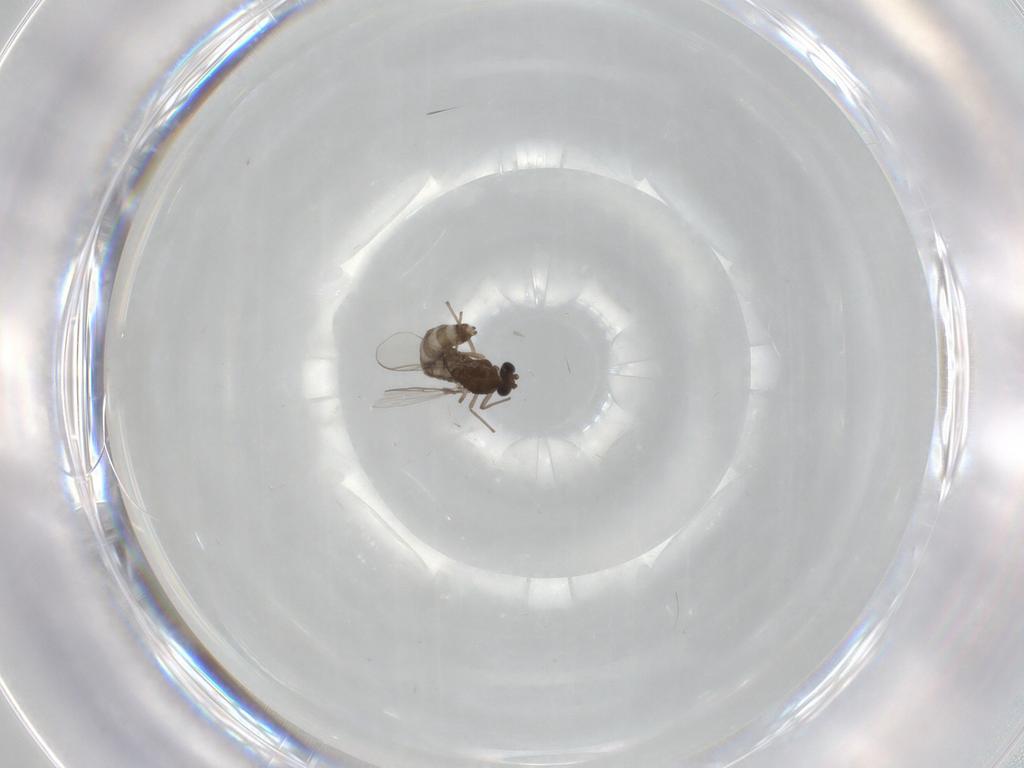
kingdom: Animalia
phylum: Arthropoda
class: Insecta
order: Diptera
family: Chironomidae
